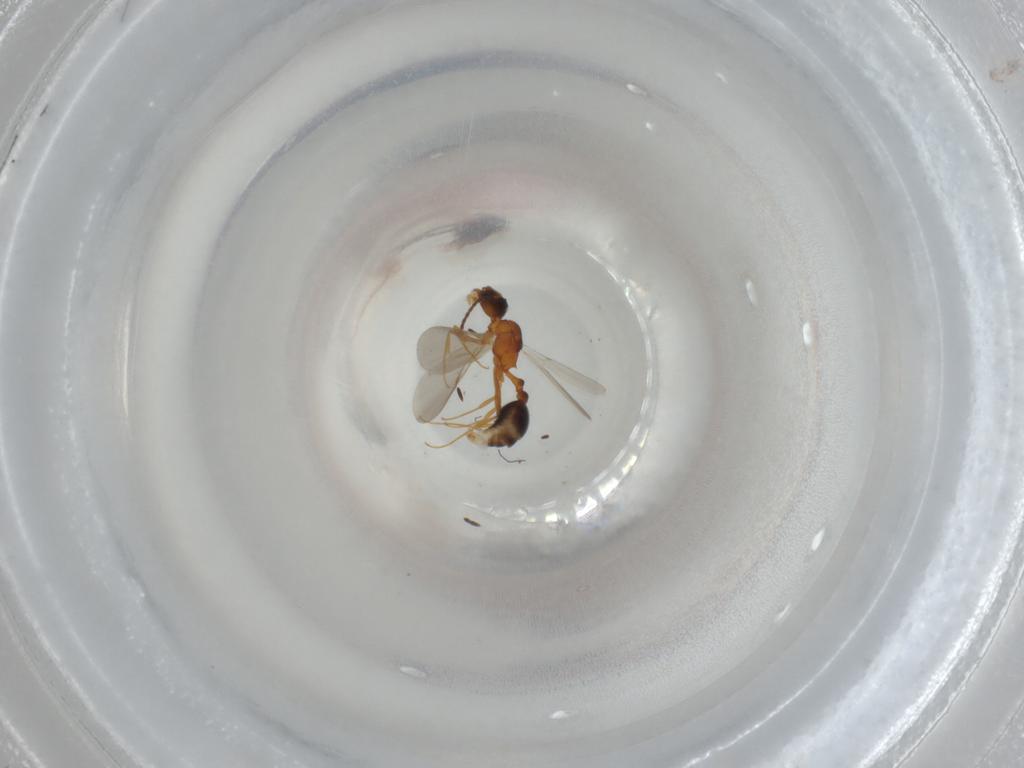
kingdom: Animalia
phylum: Arthropoda
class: Insecta
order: Hymenoptera
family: Formicidae
